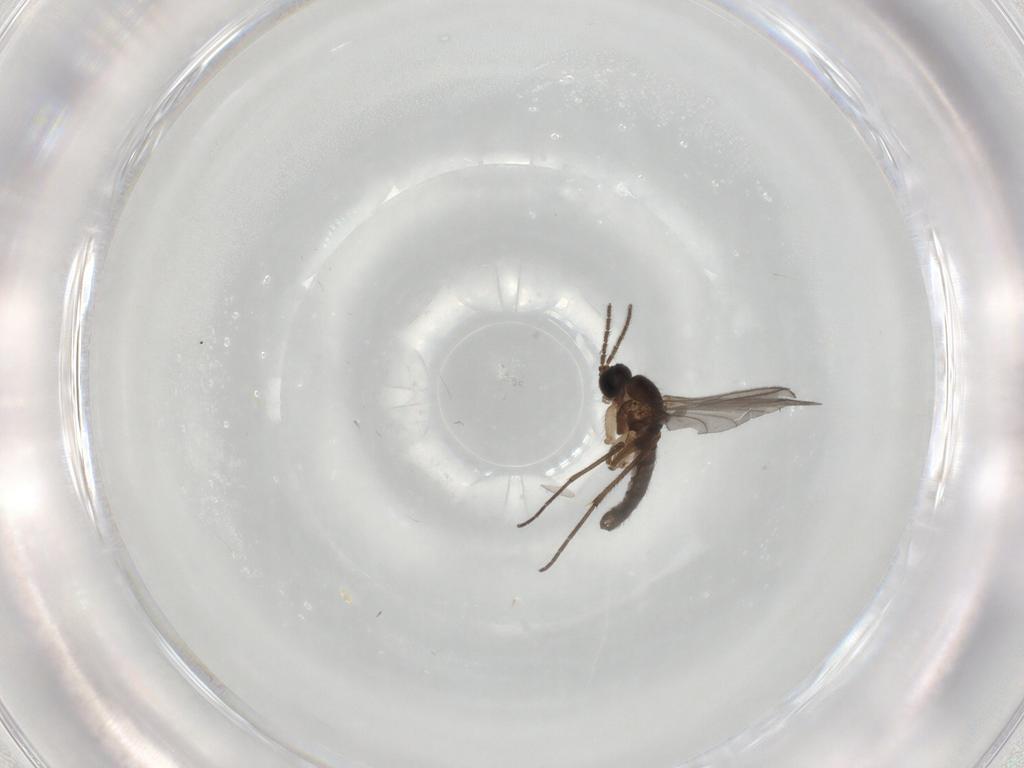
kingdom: Animalia
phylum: Arthropoda
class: Insecta
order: Diptera
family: Sciaridae
